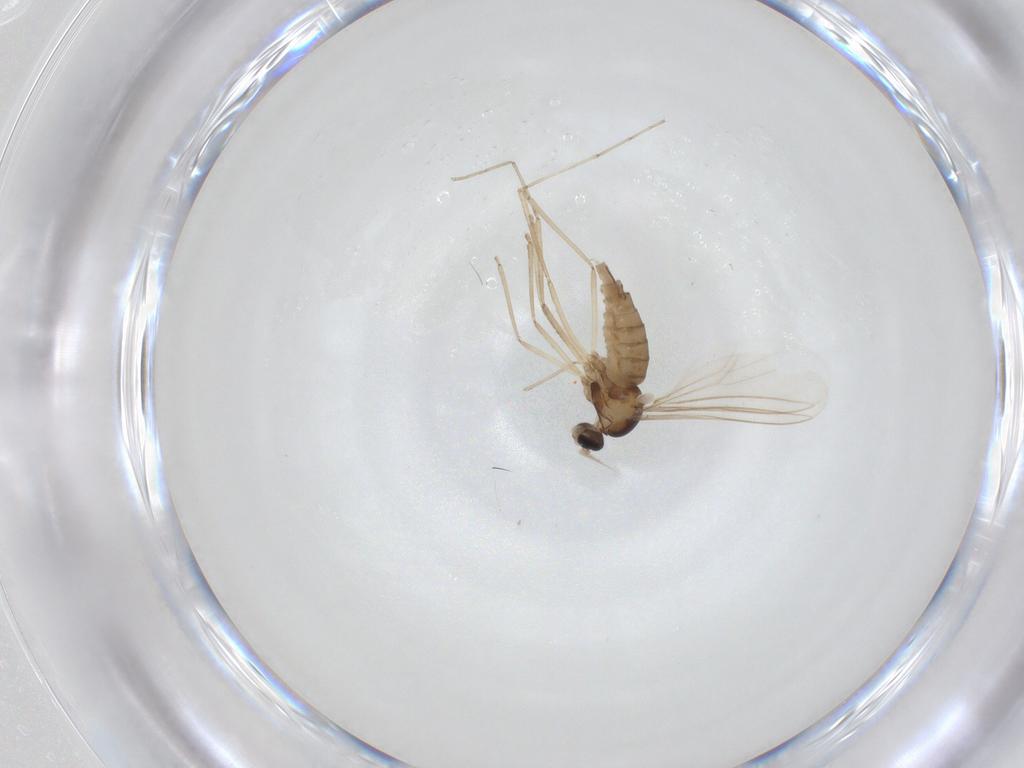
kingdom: Animalia
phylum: Arthropoda
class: Insecta
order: Diptera
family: Cecidomyiidae
